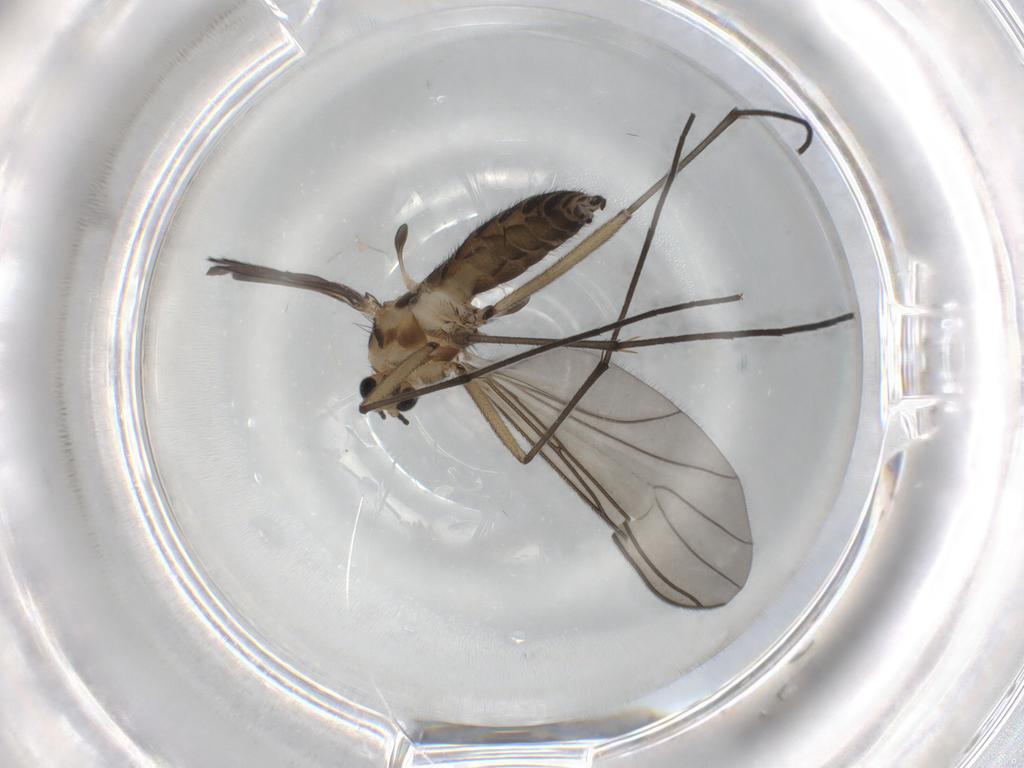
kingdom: Animalia
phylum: Arthropoda
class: Insecta
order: Diptera
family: Sciaridae
